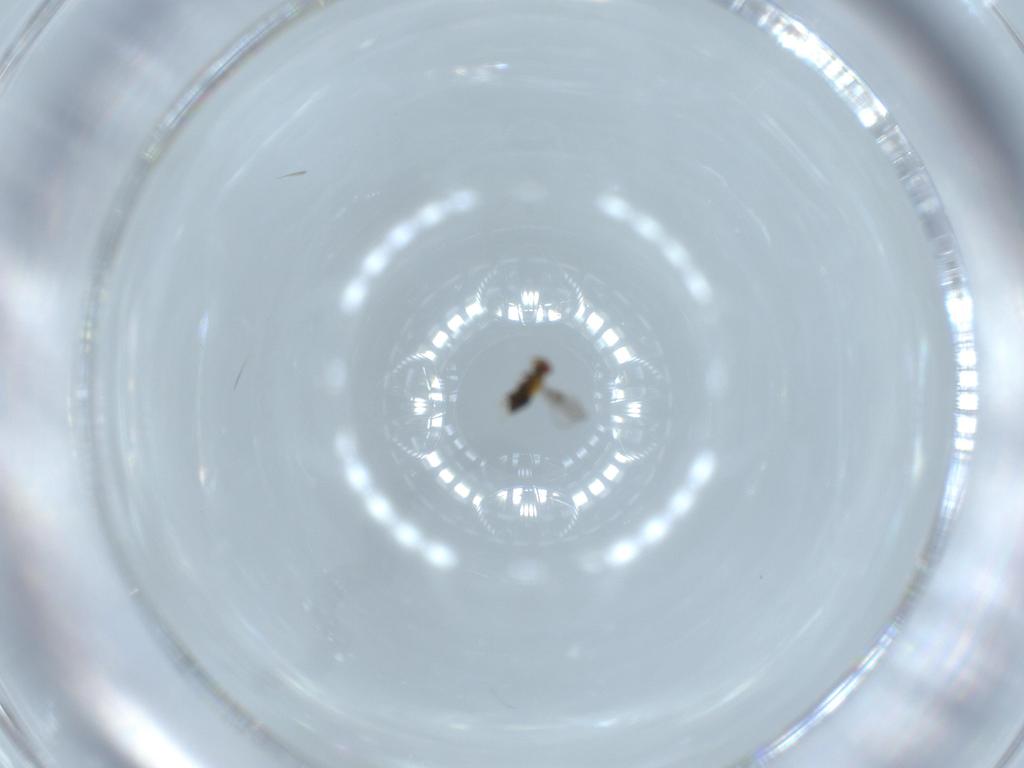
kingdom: Animalia
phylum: Arthropoda
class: Insecta
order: Hymenoptera
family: Trichogrammatidae
